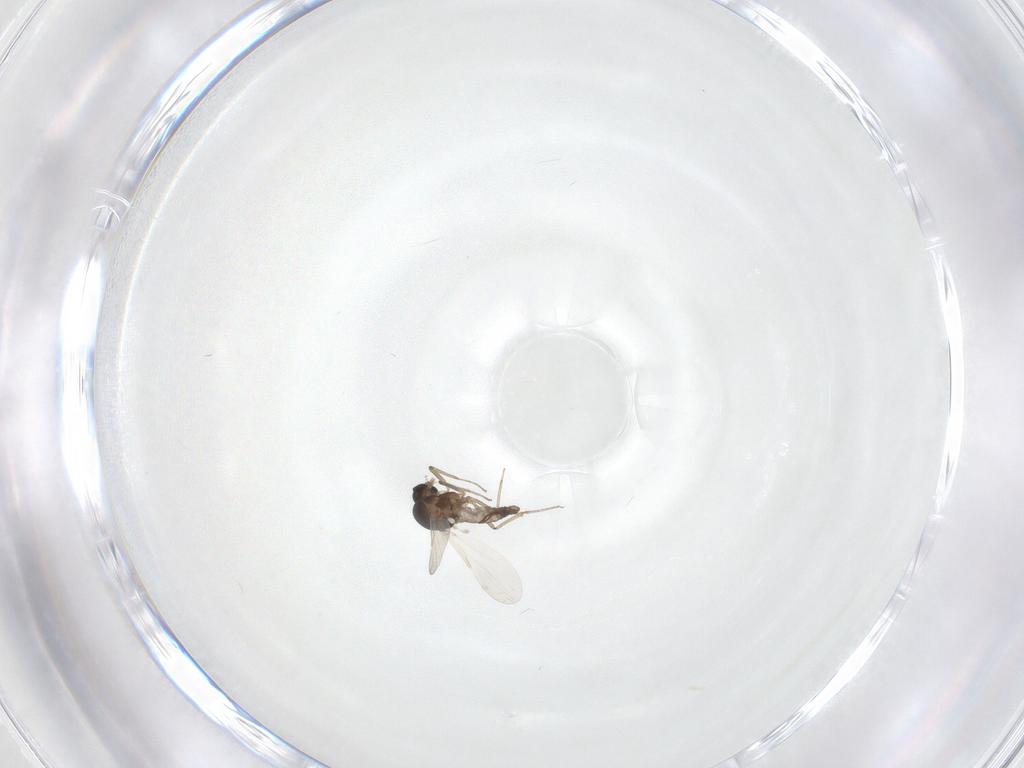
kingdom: Animalia
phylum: Arthropoda
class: Insecta
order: Diptera
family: Ceratopogonidae
